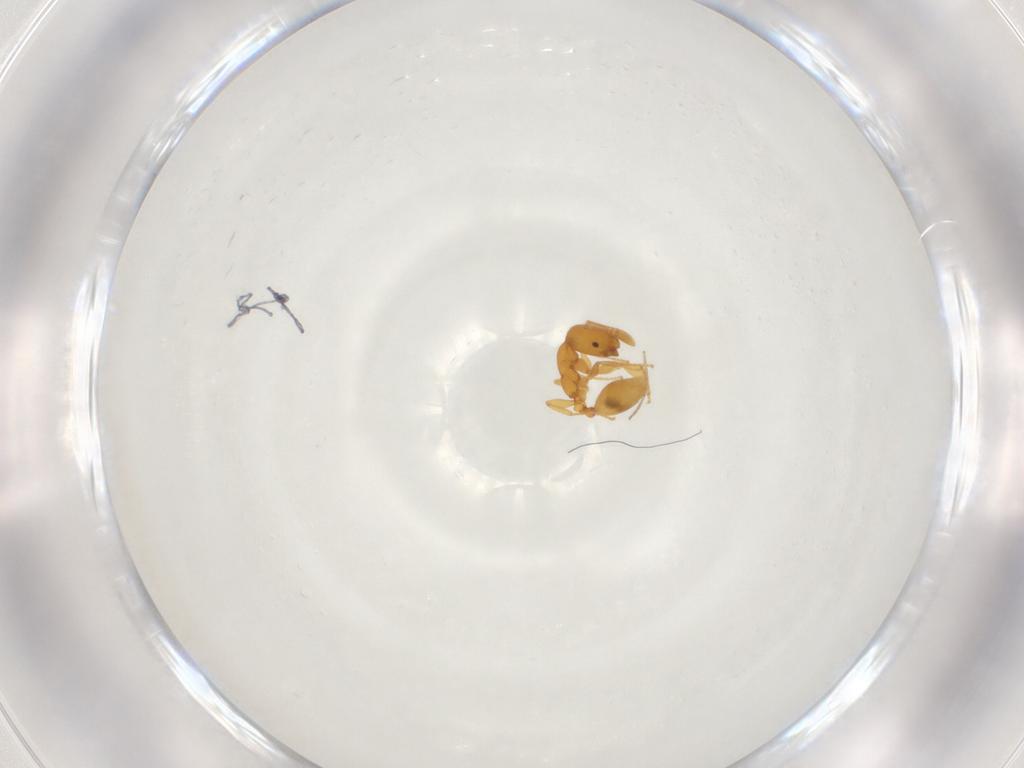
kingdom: Animalia
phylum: Arthropoda
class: Insecta
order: Hymenoptera
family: Formicidae
